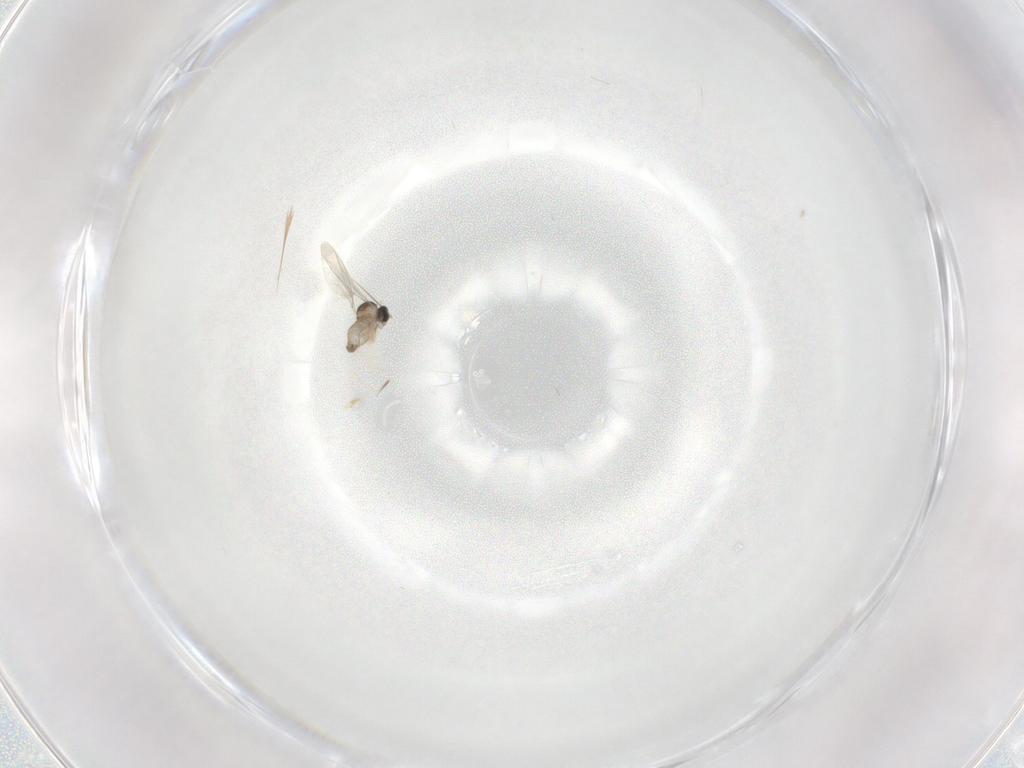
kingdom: Animalia
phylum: Arthropoda
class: Insecta
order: Diptera
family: Cecidomyiidae
